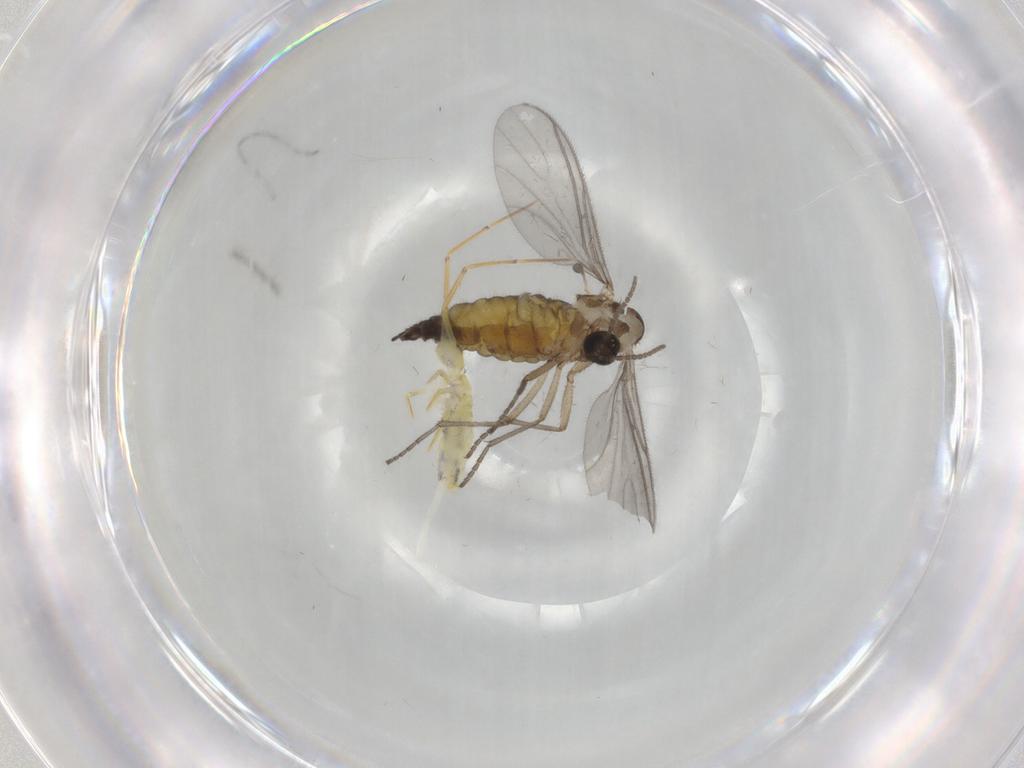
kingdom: Animalia
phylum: Arthropoda
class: Insecta
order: Diptera
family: Sciaridae
